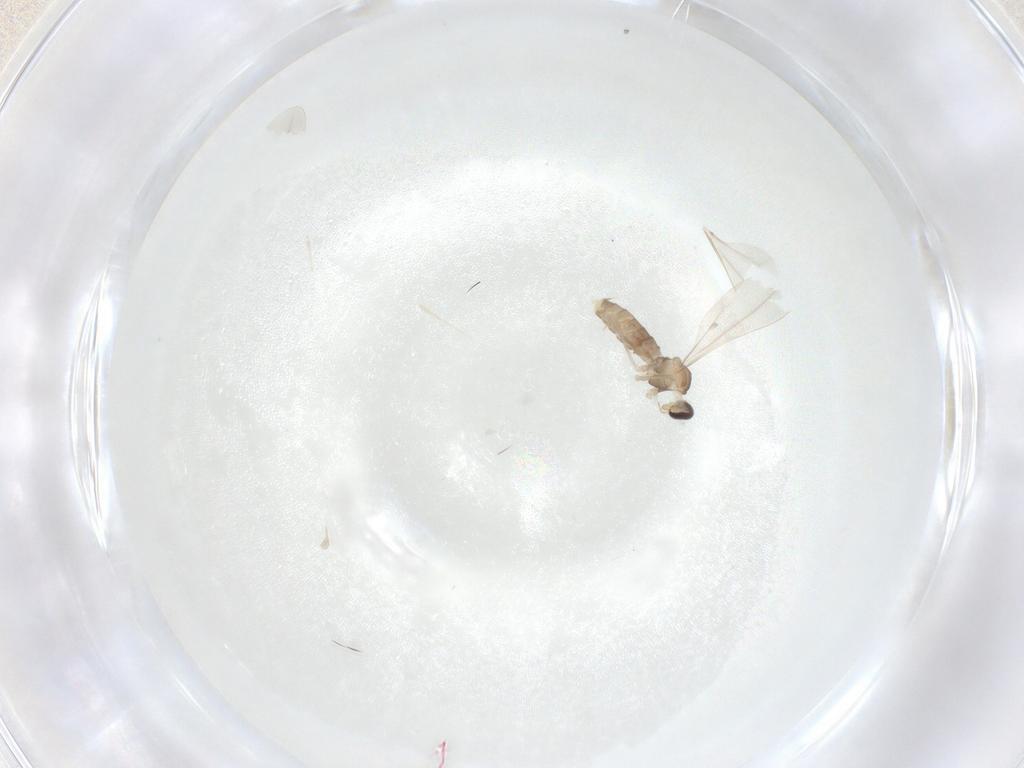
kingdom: Animalia
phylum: Arthropoda
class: Insecta
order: Diptera
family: Cecidomyiidae
